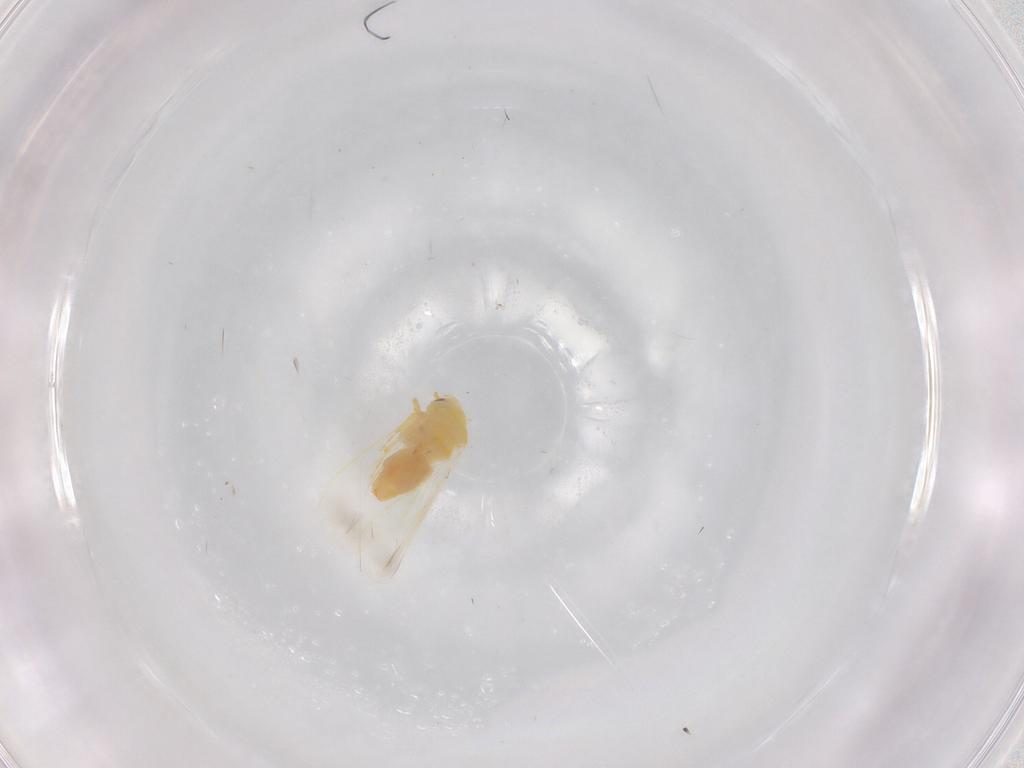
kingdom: Animalia
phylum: Arthropoda
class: Insecta
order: Hemiptera
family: Aleyrodidae
